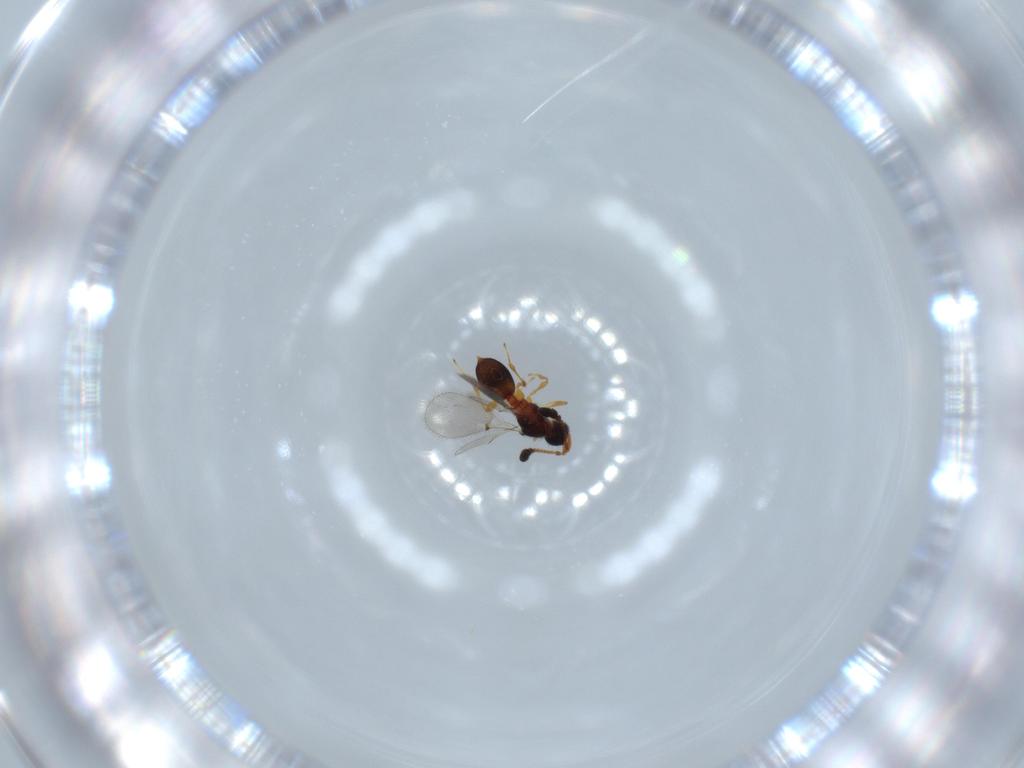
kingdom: Animalia
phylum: Arthropoda
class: Insecta
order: Hymenoptera
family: Diapriidae
